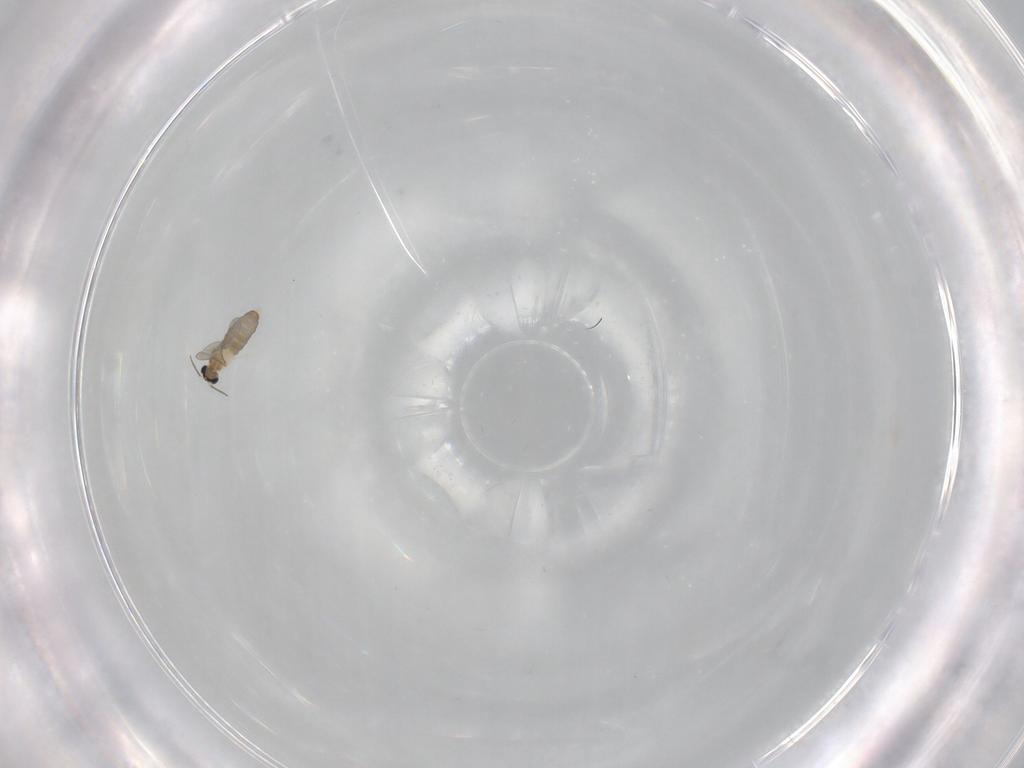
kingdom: Animalia
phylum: Arthropoda
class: Insecta
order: Diptera
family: Cecidomyiidae
